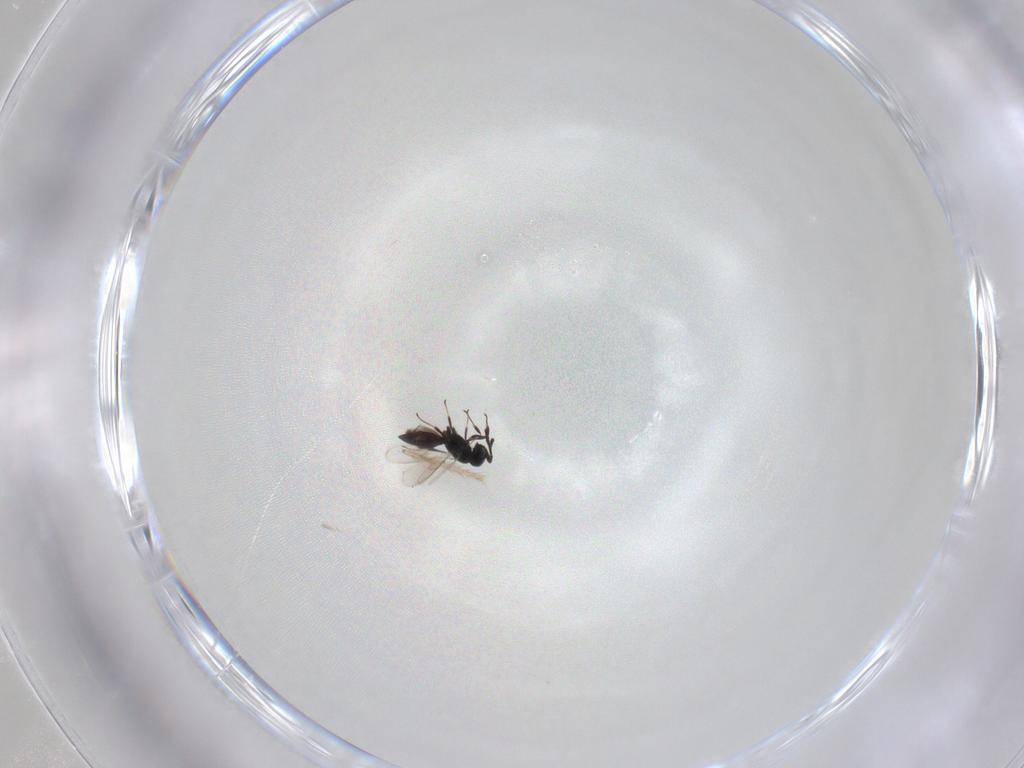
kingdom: Animalia
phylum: Arthropoda
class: Insecta
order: Hymenoptera
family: Scelionidae
